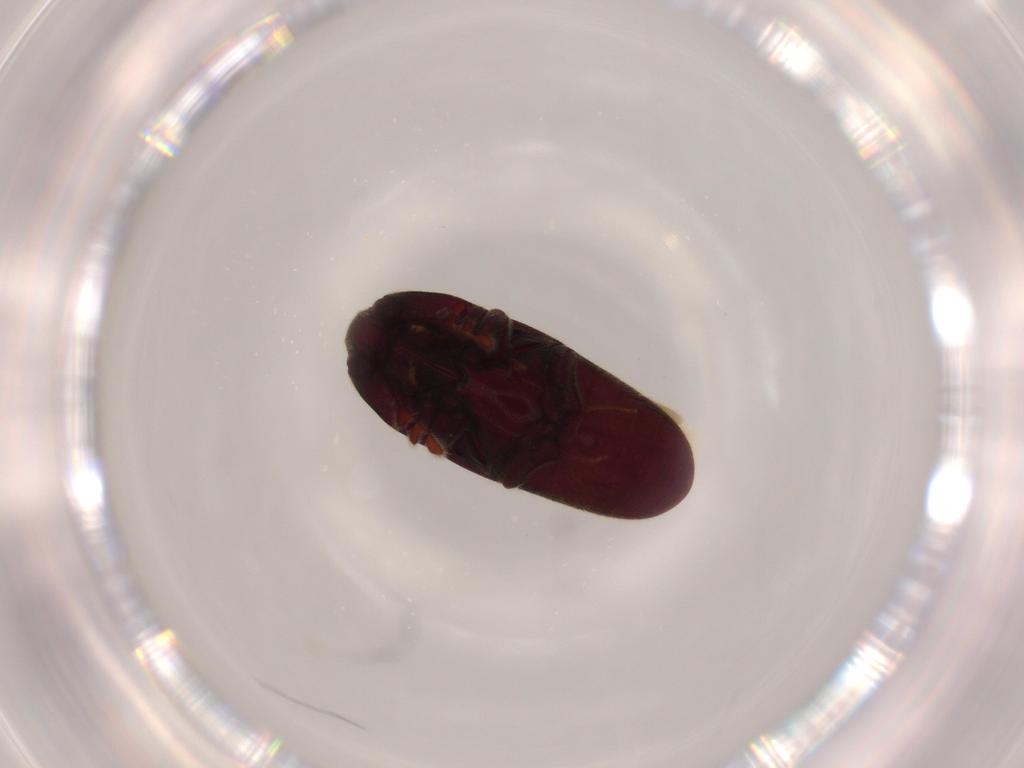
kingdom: Animalia
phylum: Arthropoda
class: Insecta
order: Coleoptera
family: Throscidae
